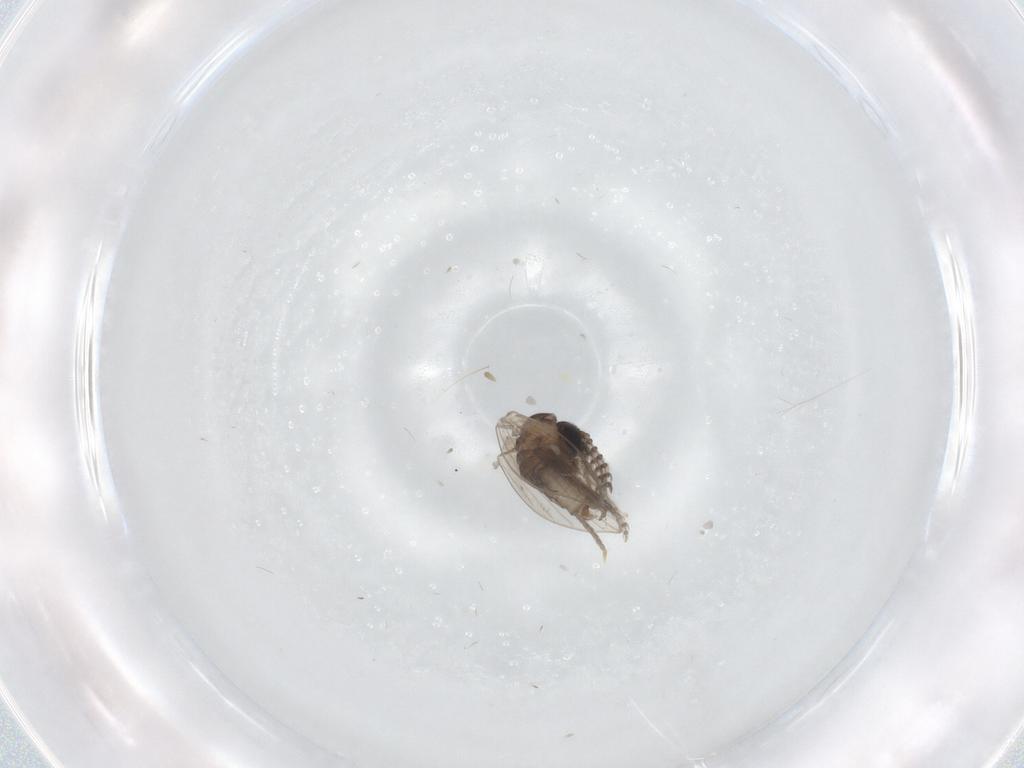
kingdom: Animalia
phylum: Arthropoda
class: Insecta
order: Diptera
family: Psychodidae
